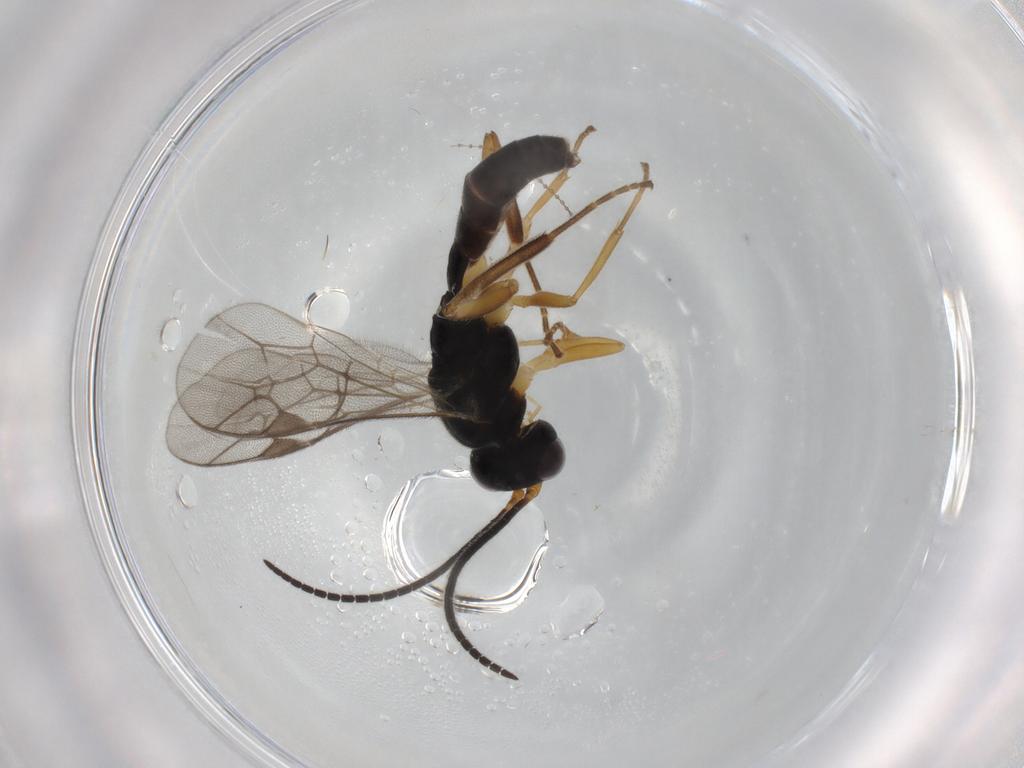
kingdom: Animalia
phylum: Arthropoda
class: Insecta
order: Hymenoptera
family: Ichneumonidae
